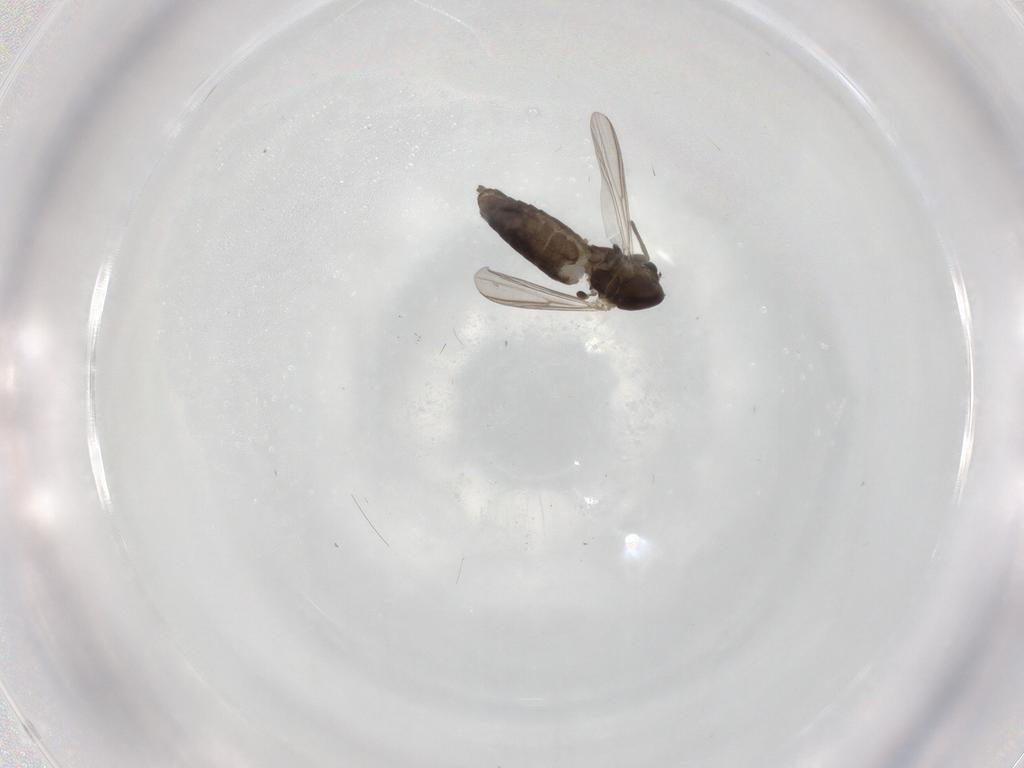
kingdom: Animalia
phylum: Arthropoda
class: Insecta
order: Diptera
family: Chironomidae
